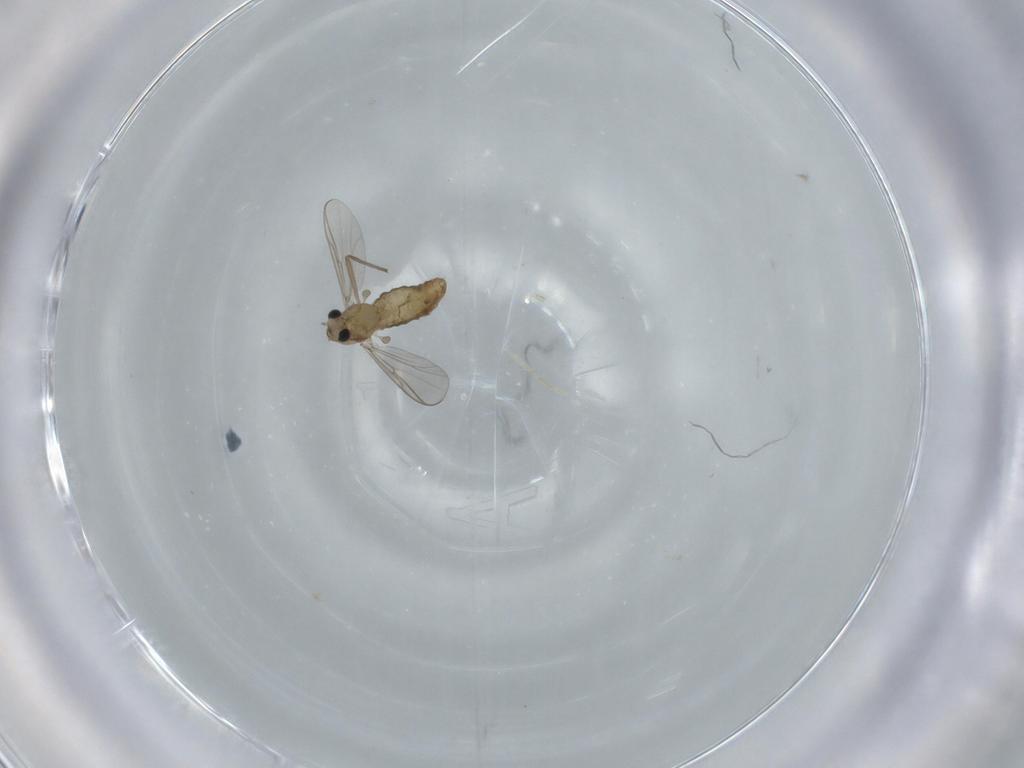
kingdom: Animalia
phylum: Arthropoda
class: Insecta
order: Diptera
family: Chironomidae
